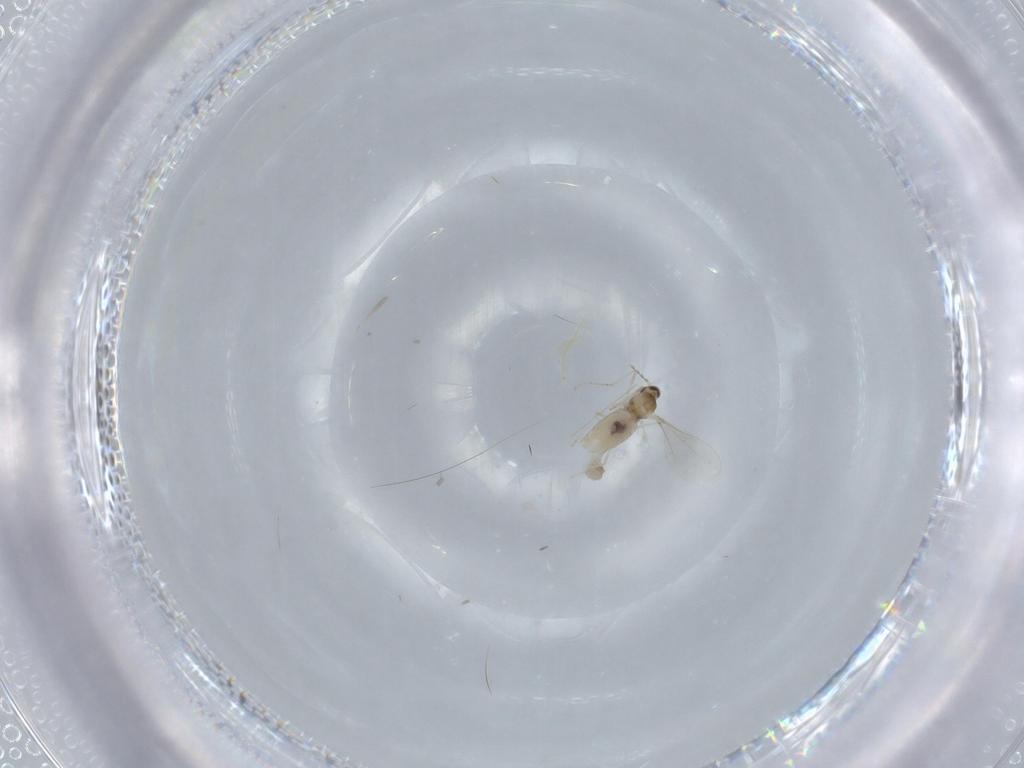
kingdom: Animalia
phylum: Arthropoda
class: Insecta
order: Diptera
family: Cecidomyiidae
